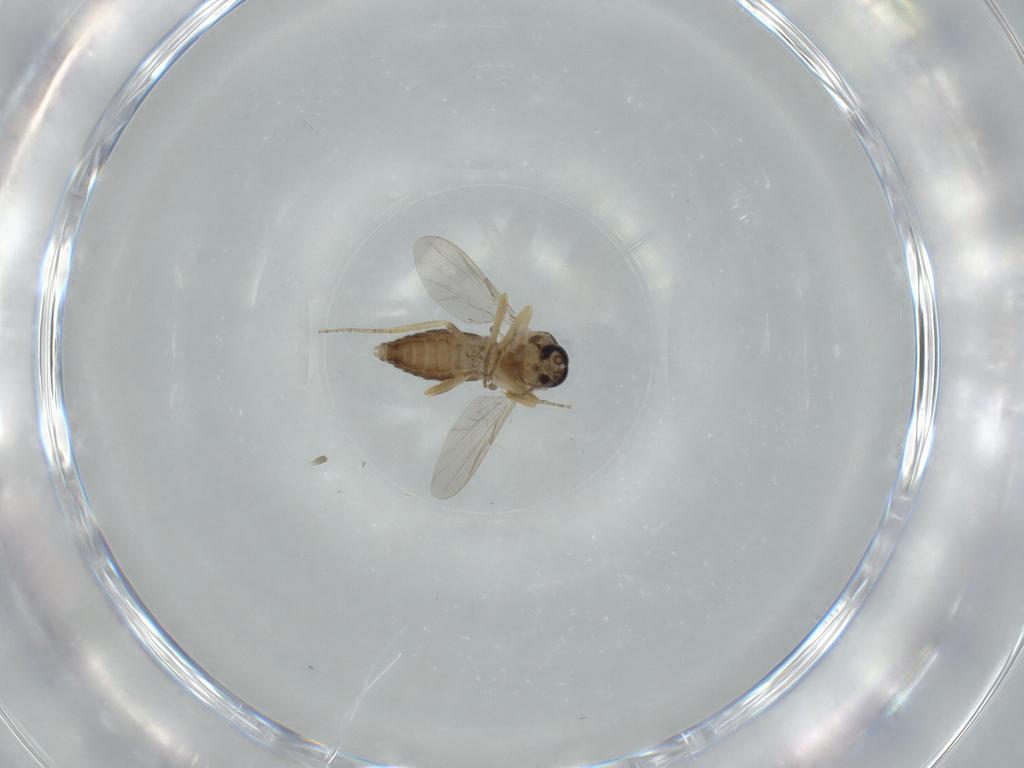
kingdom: Animalia
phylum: Arthropoda
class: Insecta
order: Diptera
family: Ceratopogonidae
